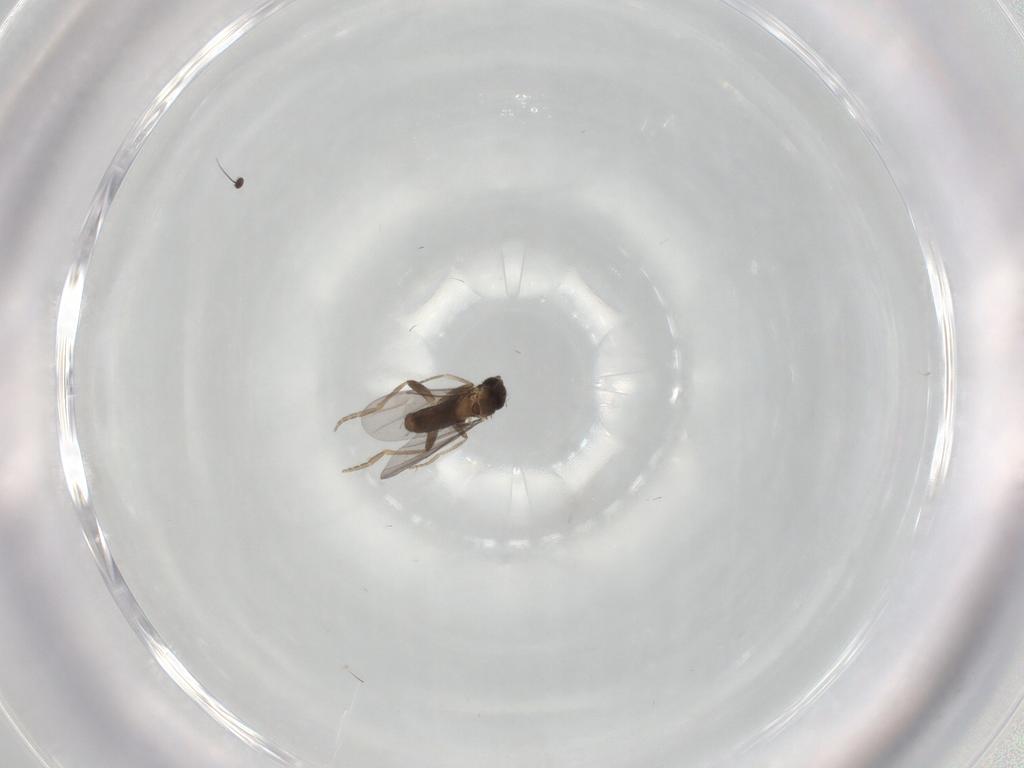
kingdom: Animalia
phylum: Arthropoda
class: Insecta
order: Diptera
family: Dolichopodidae
